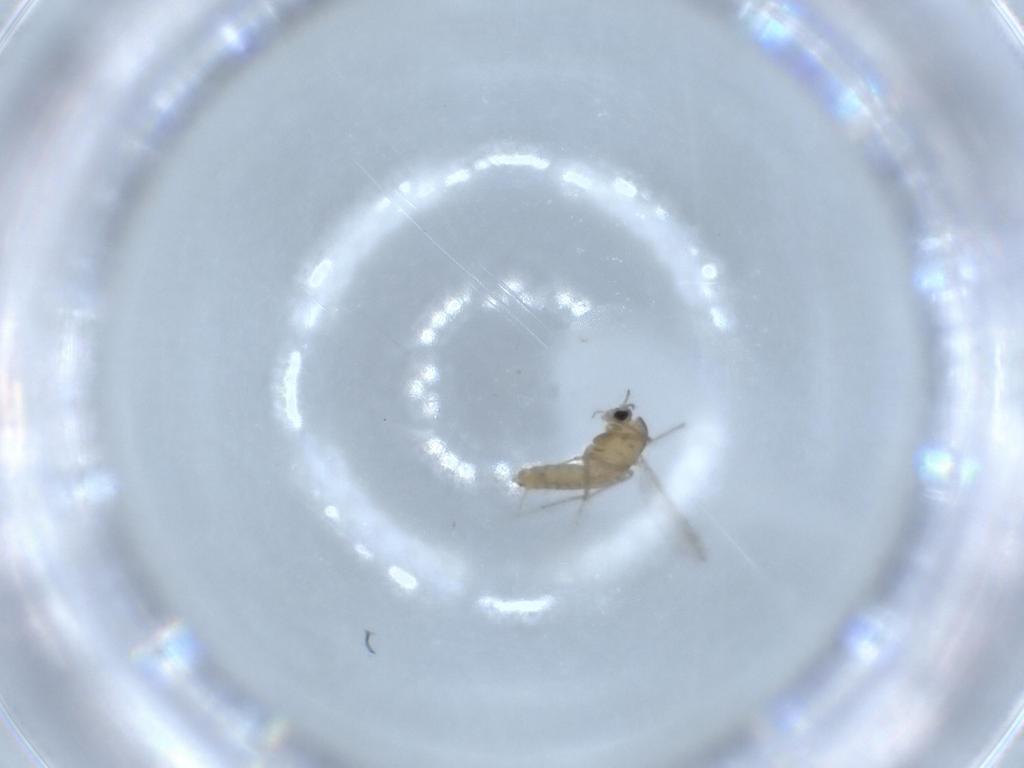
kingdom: Animalia
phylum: Arthropoda
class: Insecta
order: Diptera
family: Chironomidae
